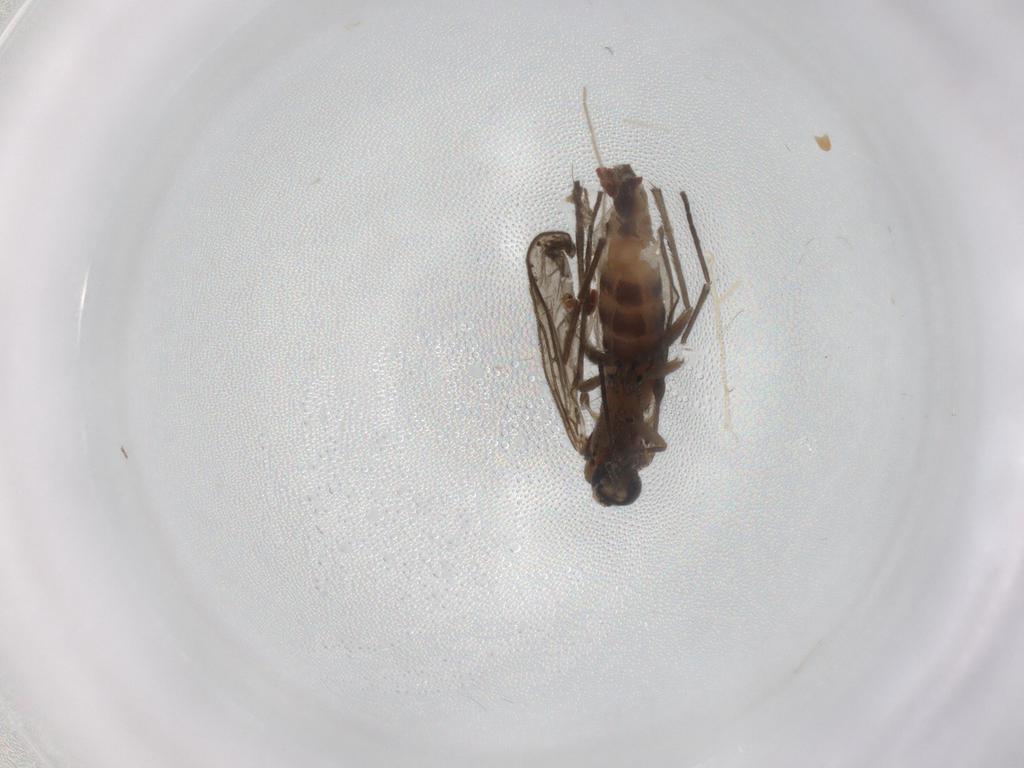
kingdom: Animalia
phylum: Arthropoda
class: Insecta
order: Diptera
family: Chironomidae
